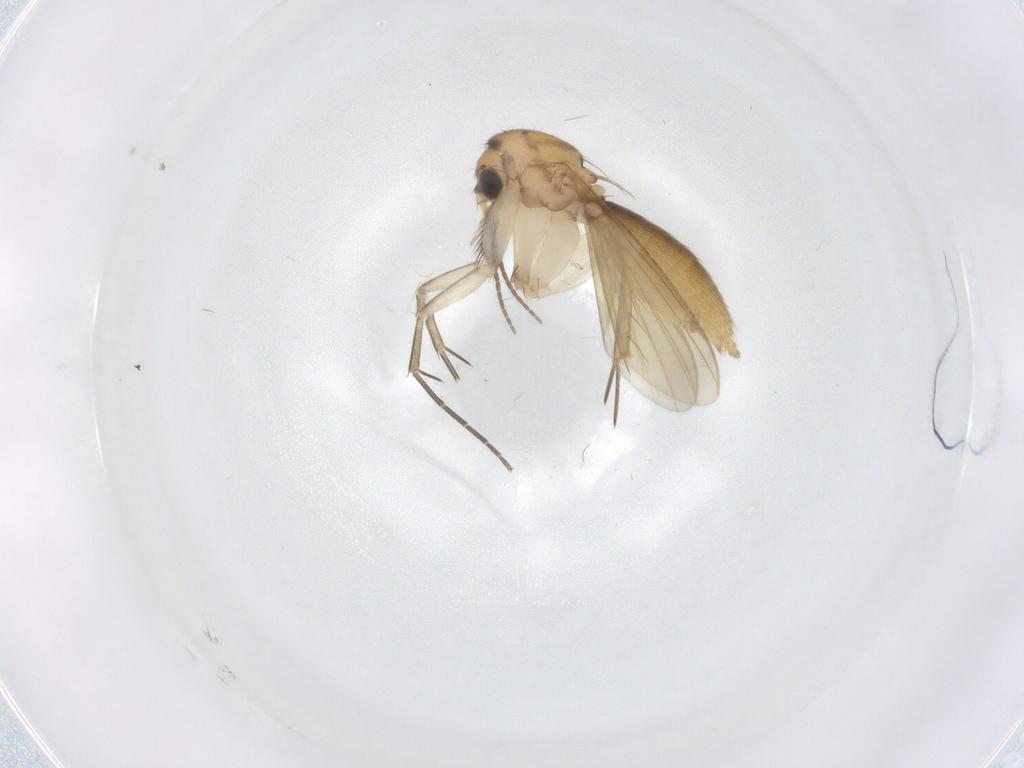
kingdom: Animalia
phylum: Arthropoda
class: Insecta
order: Diptera
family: Mycetophilidae
